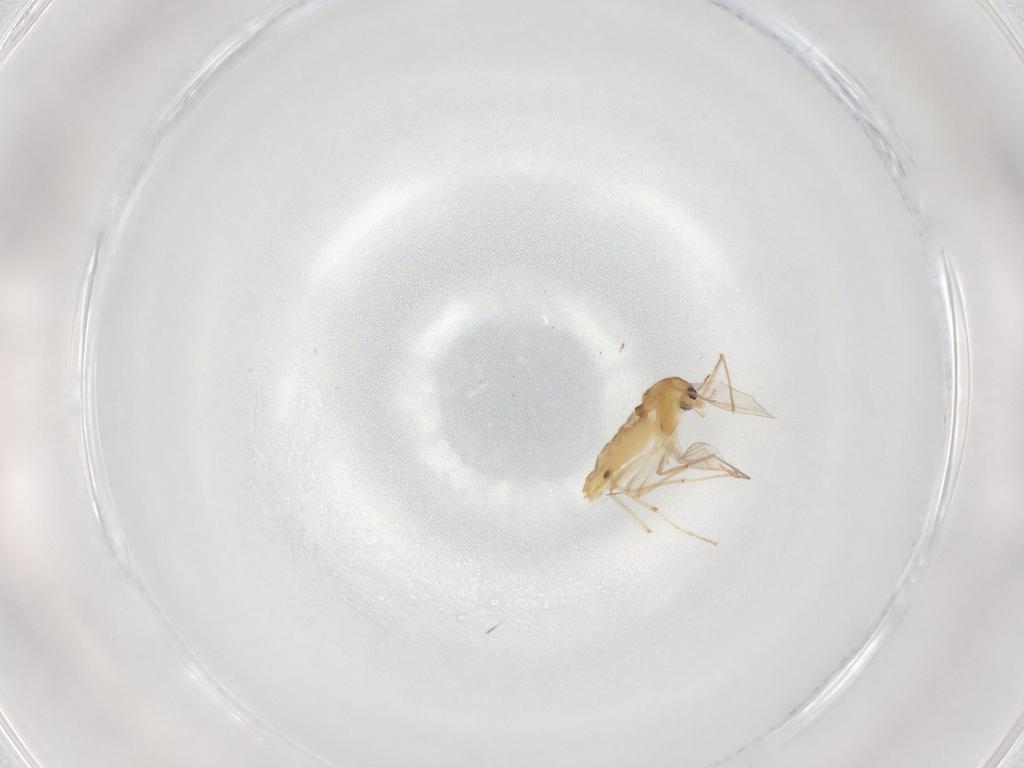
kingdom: Animalia
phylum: Arthropoda
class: Insecta
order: Diptera
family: Chironomidae
